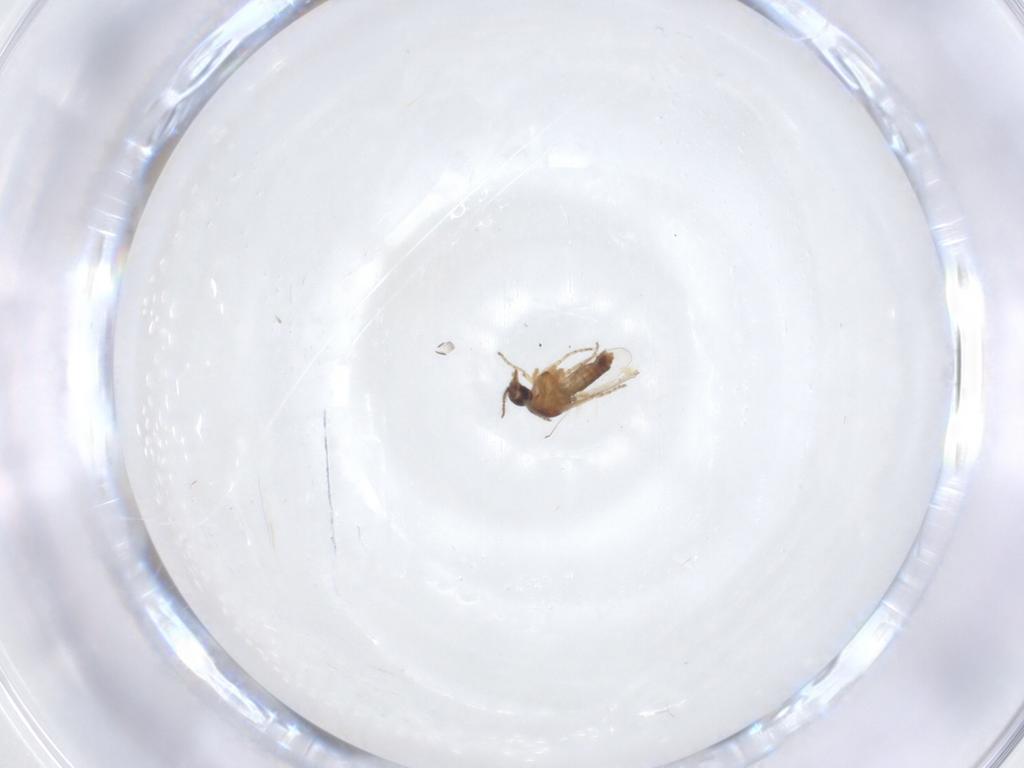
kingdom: Animalia
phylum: Arthropoda
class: Insecta
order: Diptera
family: Ceratopogonidae
